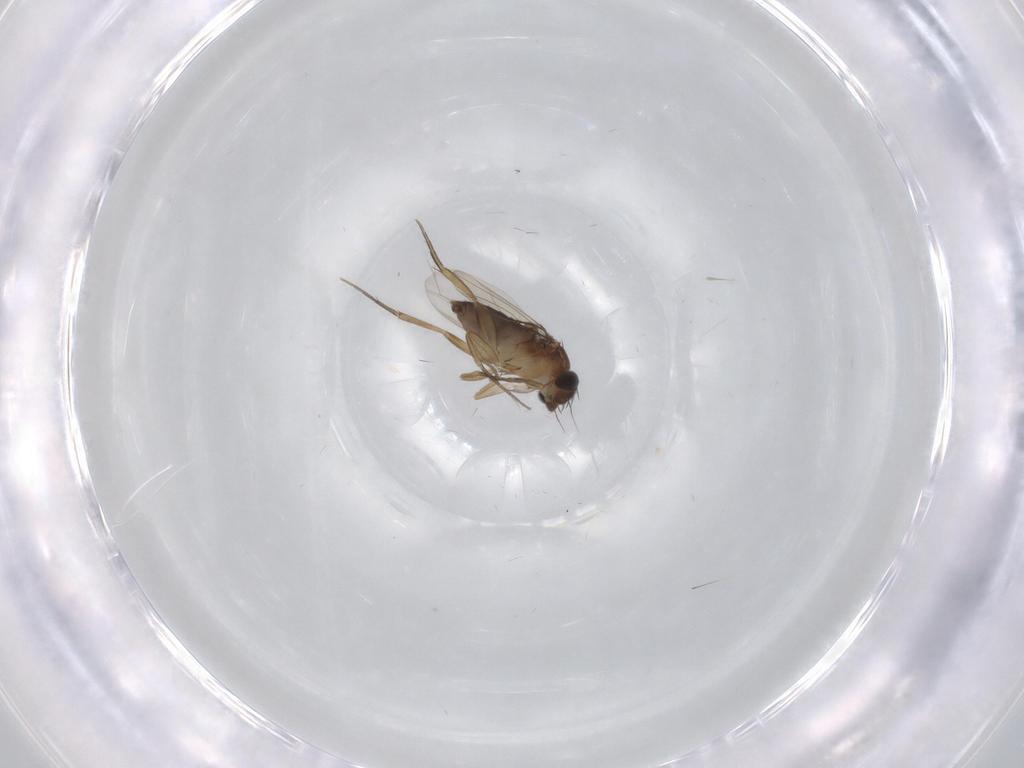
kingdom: Animalia
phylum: Arthropoda
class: Insecta
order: Diptera
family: Phoridae
